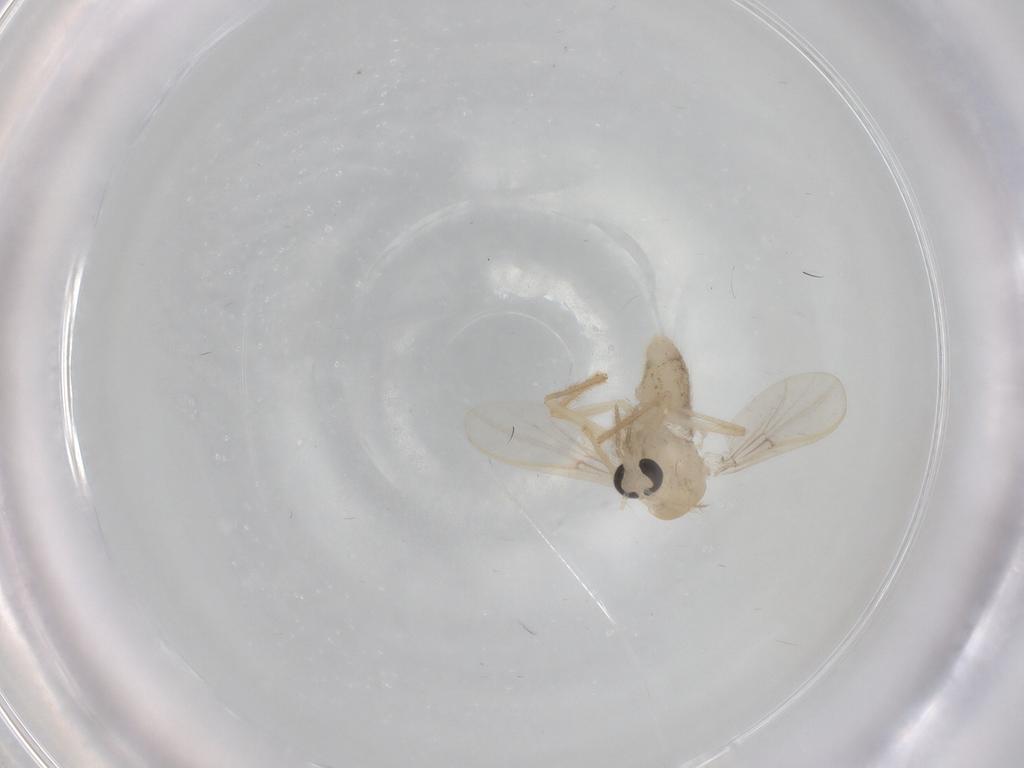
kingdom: Animalia
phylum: Arthropoda
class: Insecta
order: Diptera
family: Chironomidae
